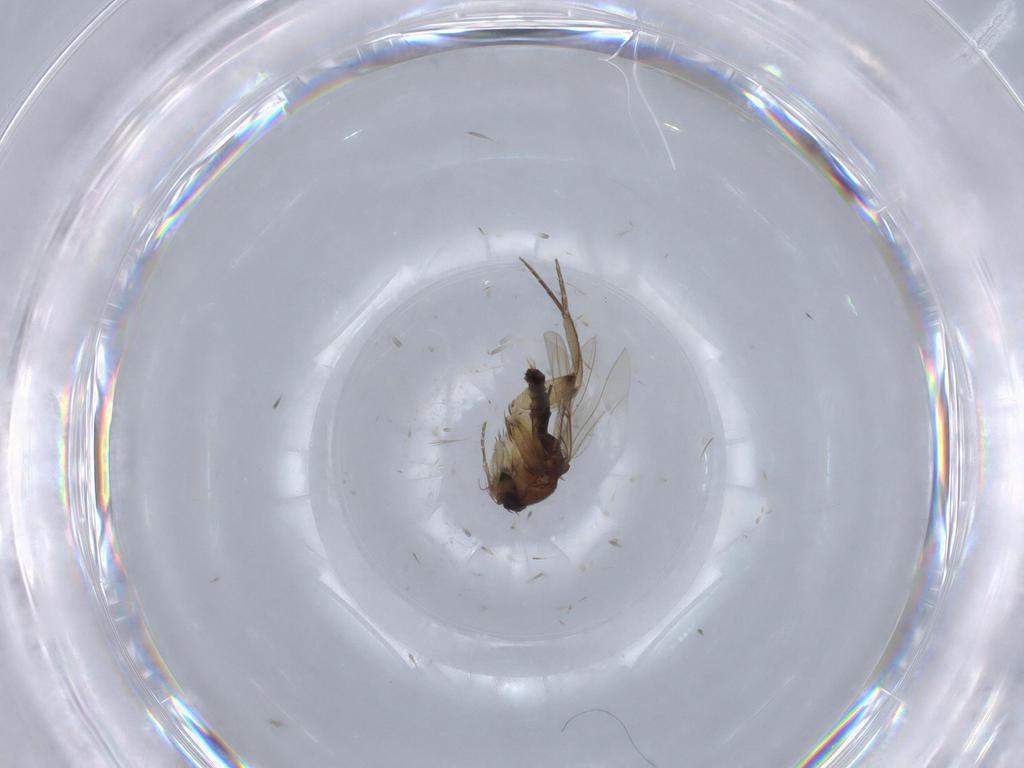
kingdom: Animalia
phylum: Arthropoda
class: Insecta
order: Diptera
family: Phoridae
